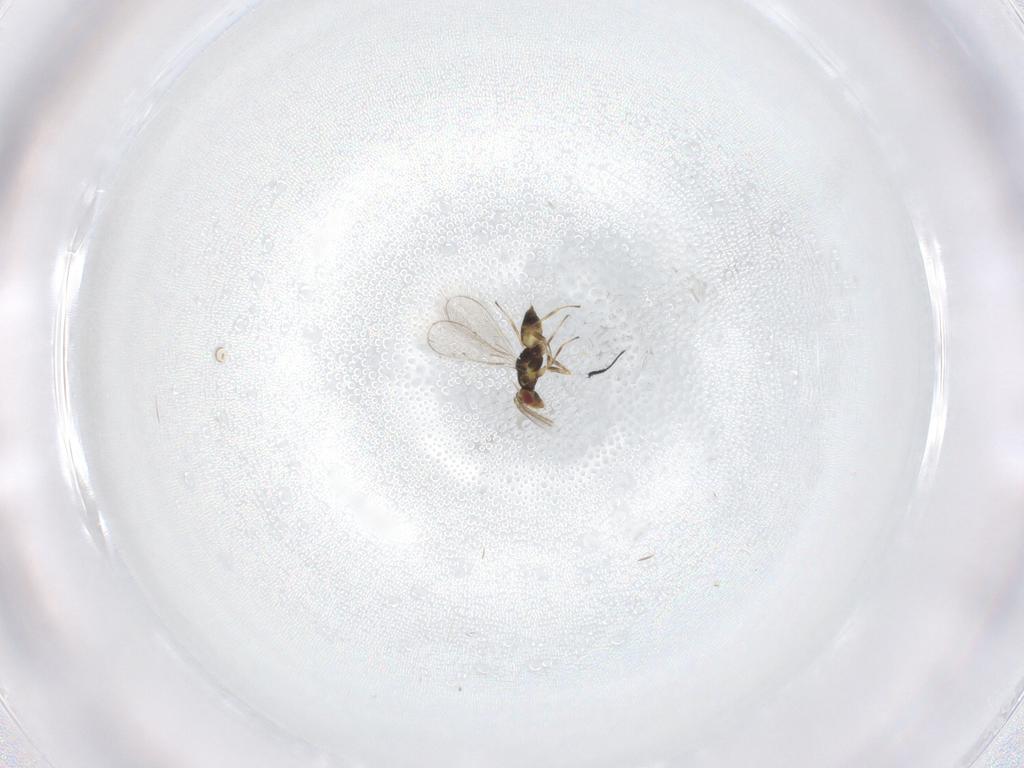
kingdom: Animalia
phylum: Arthropoda
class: Insecta
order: Hymenoptera
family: Eulophidae
